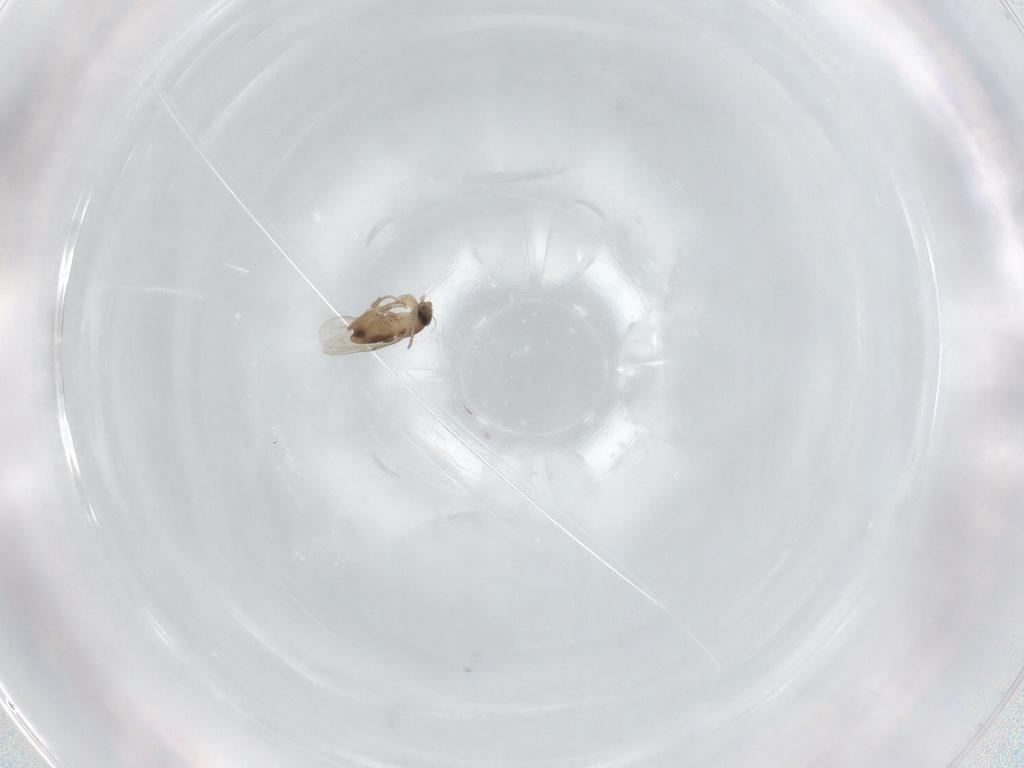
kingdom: Animalia
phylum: Arthropoda
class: Insecta
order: Diptera
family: Phoridae
